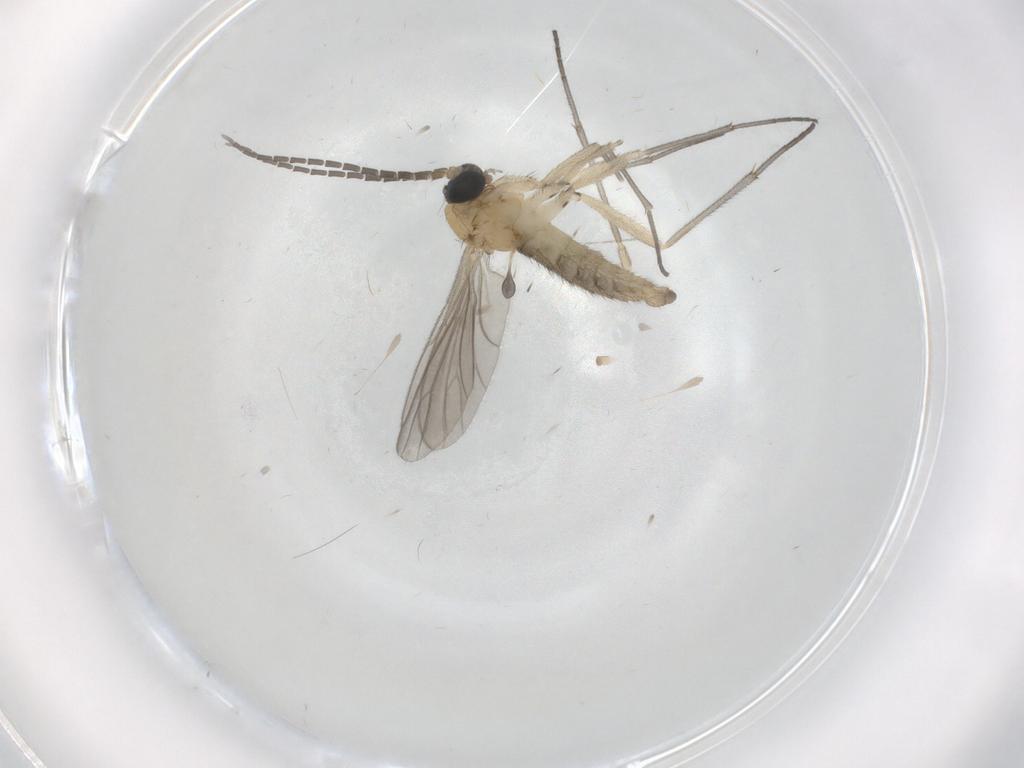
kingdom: Animalia
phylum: Arthropoda
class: Insecta
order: Diptera
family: Sciaridae
